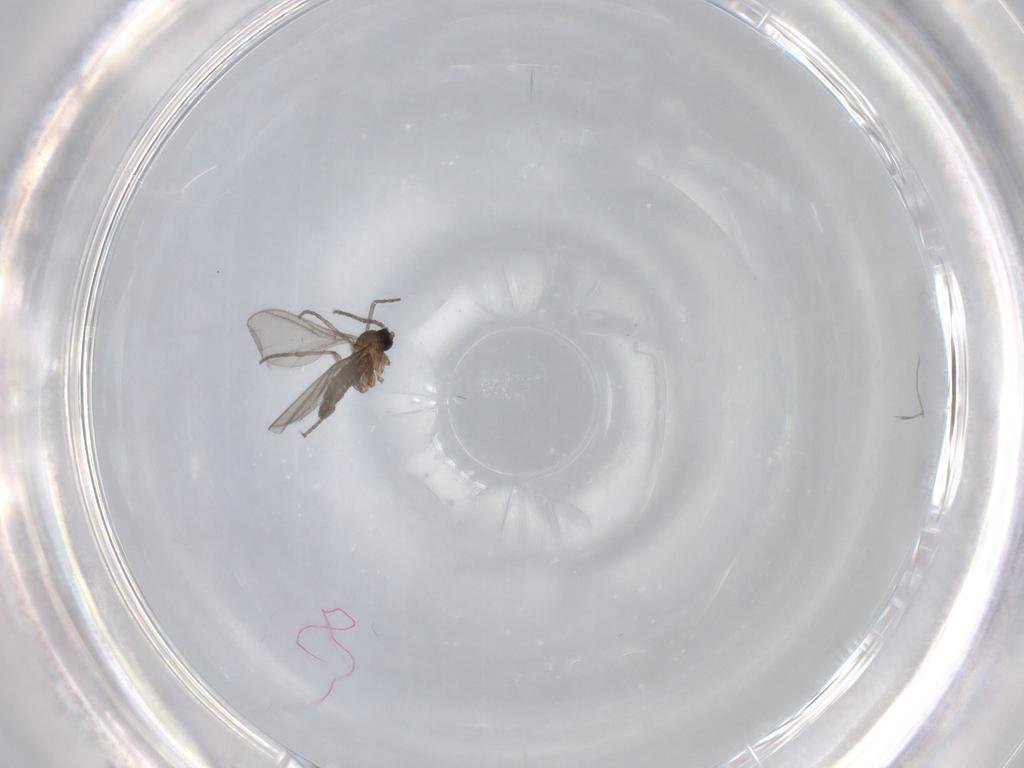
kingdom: Animalia
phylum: Arthropoda
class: Insecta
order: Diptera
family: Sciaridae
